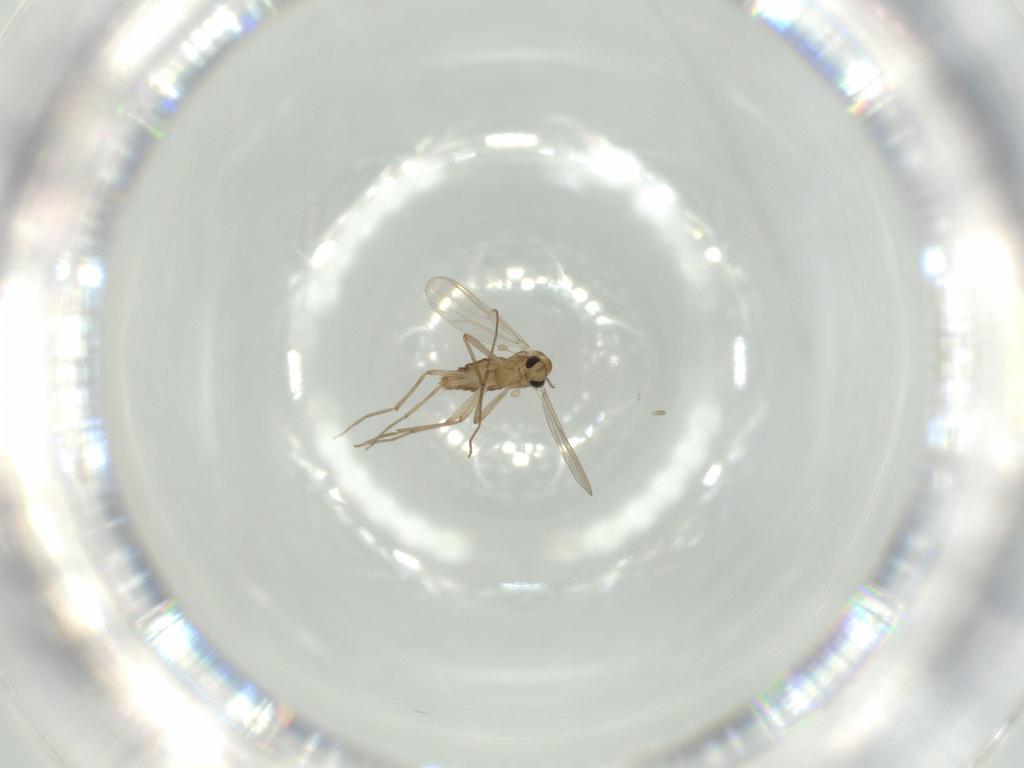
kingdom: Animalia
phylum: Arthropoda
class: Insecta
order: Diptera
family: Chironomidae
